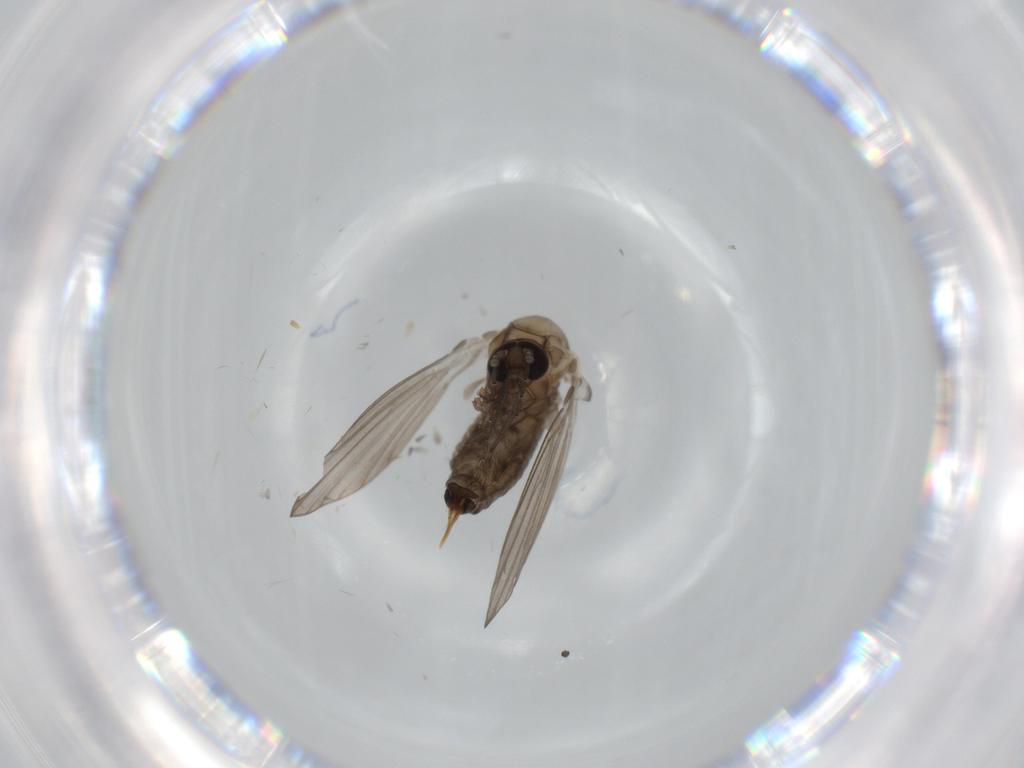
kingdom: Animalia
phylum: Arthropoda
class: Insecta
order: Diptera
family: Psychodidae
